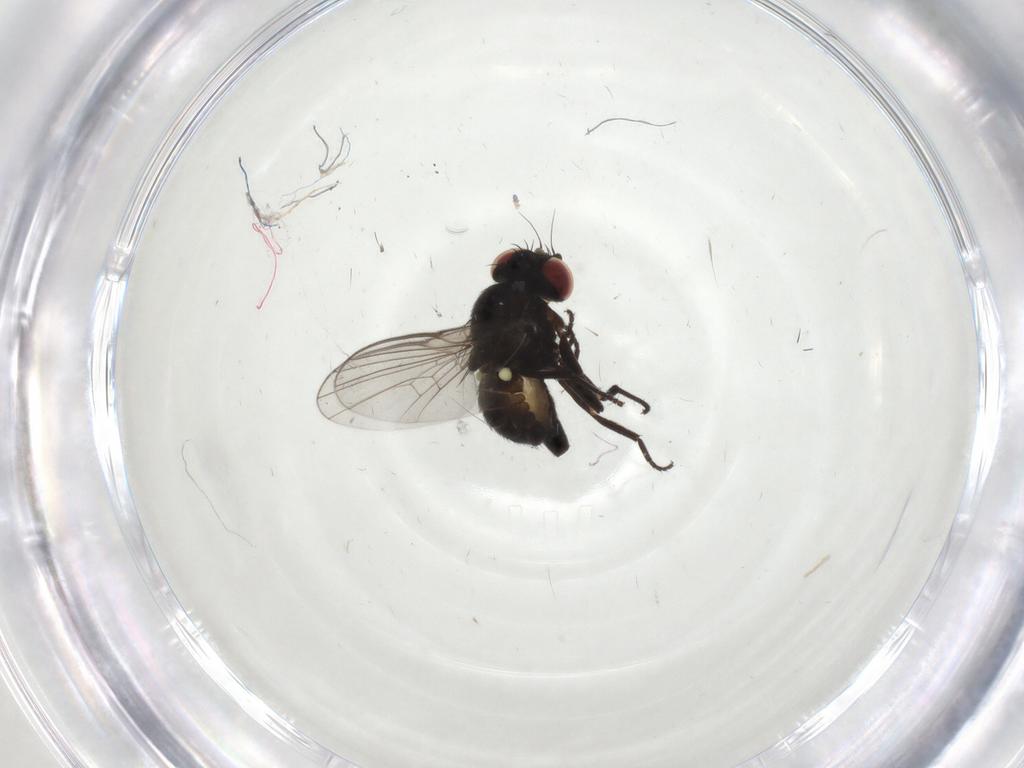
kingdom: Animalia
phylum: Arthropoda
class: Insecta
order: Diptera
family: Agromyzidae
